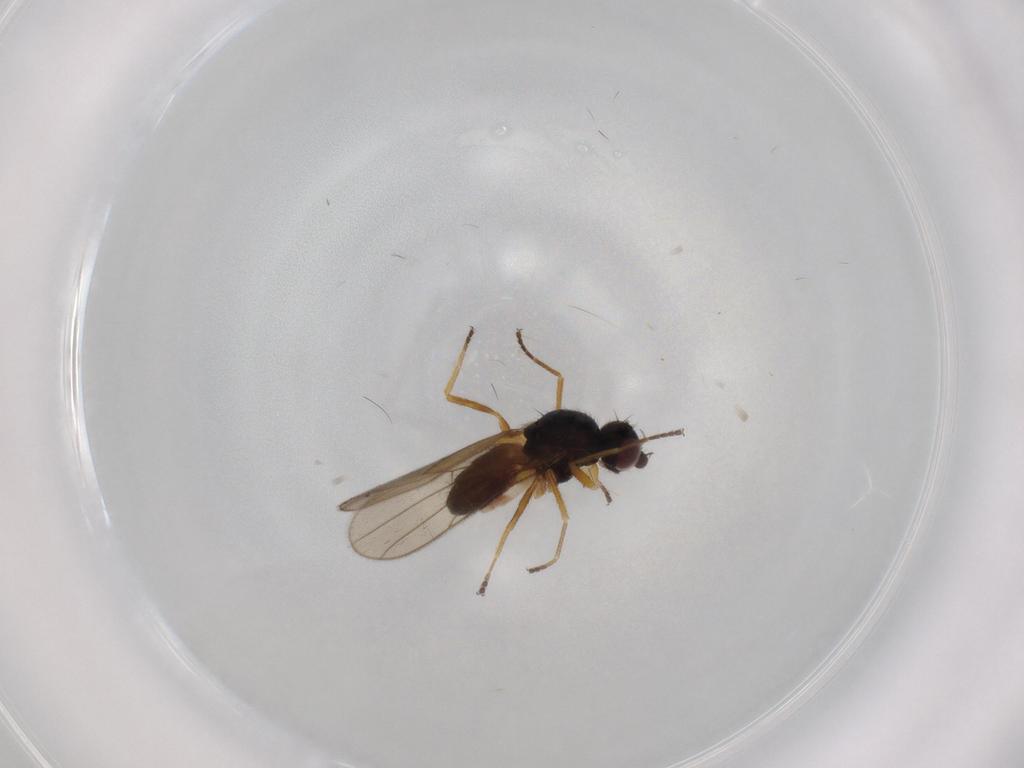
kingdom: Animalia
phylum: Arthropoda
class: Insecta
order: Diptera
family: Chloropidae
